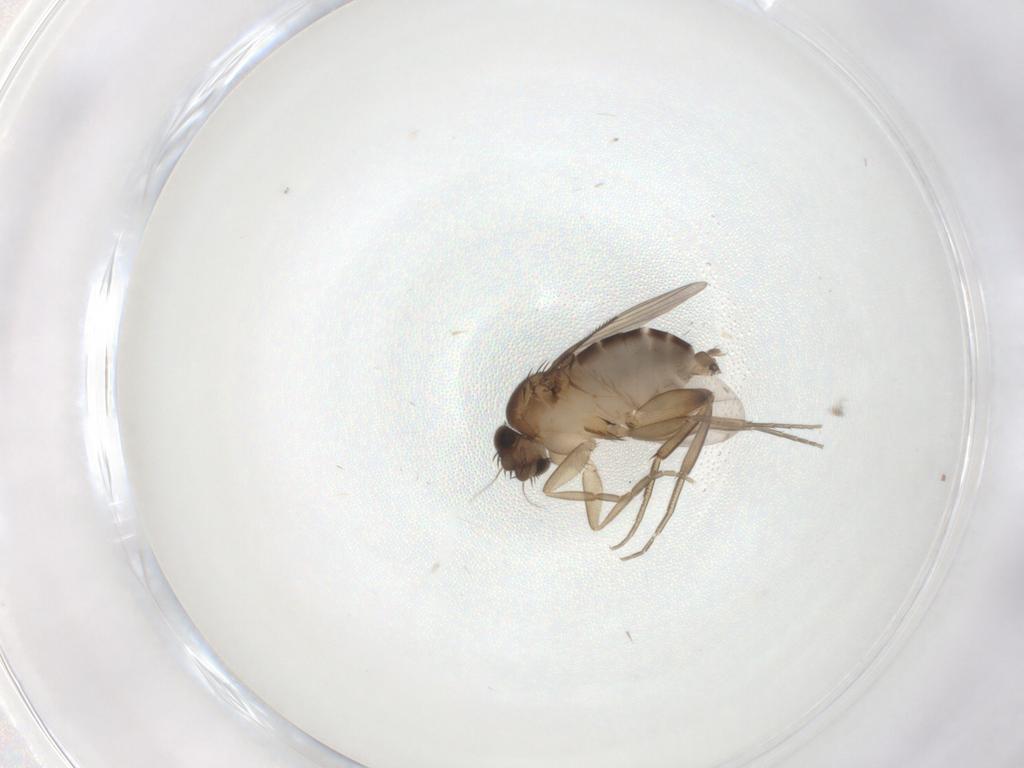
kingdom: Animalia
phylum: Arthropoda
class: Insecta
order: Diptera
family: Phoridae
